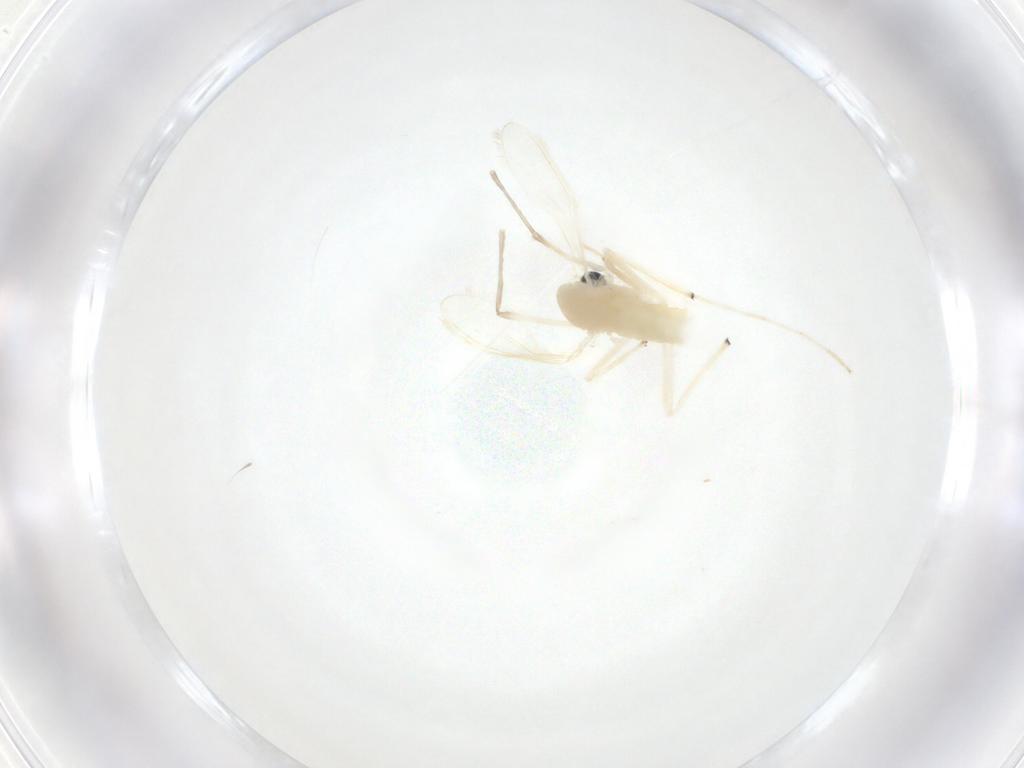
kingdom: Animalia
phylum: Arthropoda
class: Insecta
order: Diptera
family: Chironomidae
